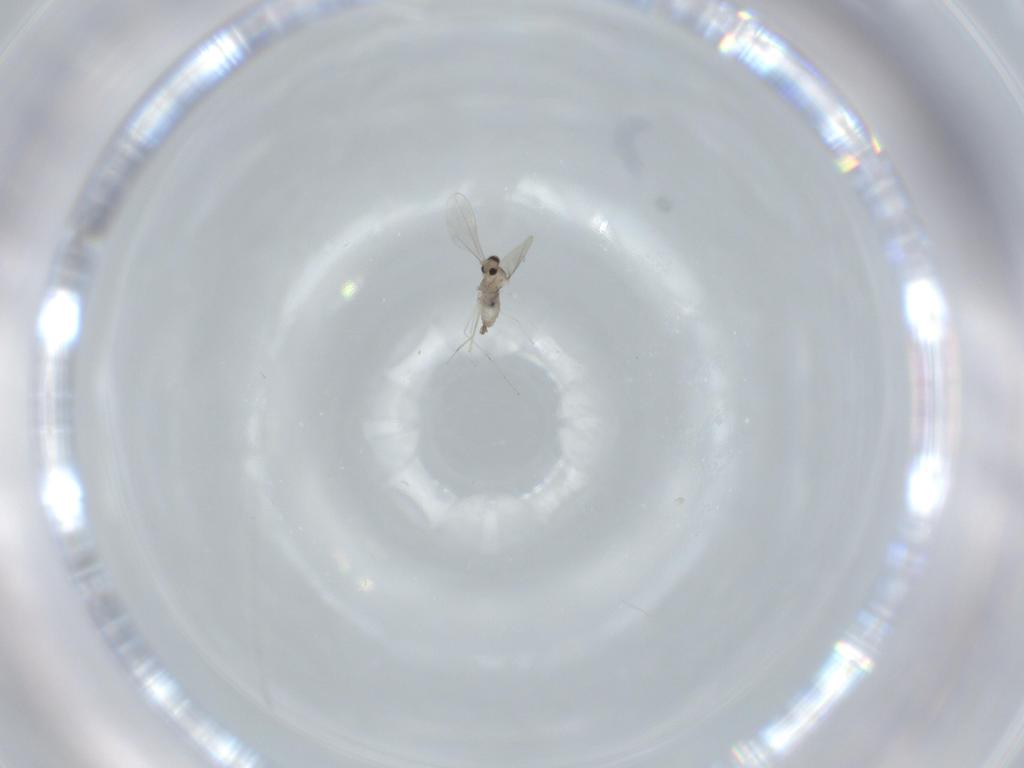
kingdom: Animalia
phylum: Arthropoda
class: Insecta
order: Diptera
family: Cecidomyiidae
